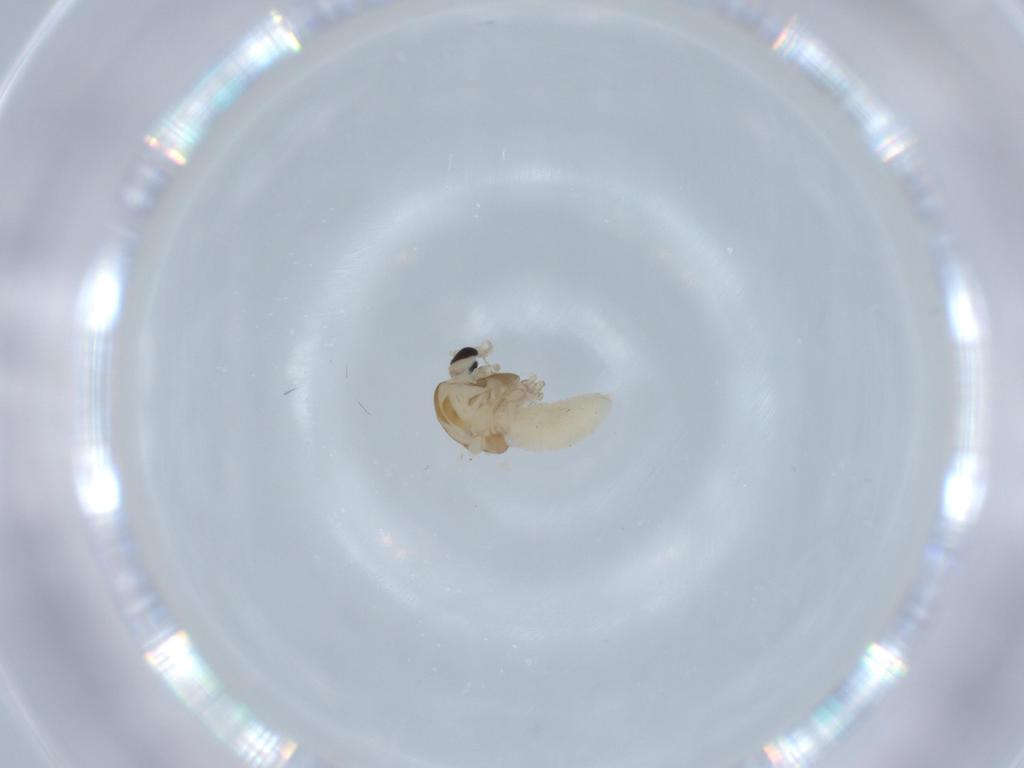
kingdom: Animalia
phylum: Arthropoda
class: Insecta
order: Diptera
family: Chironomidae
